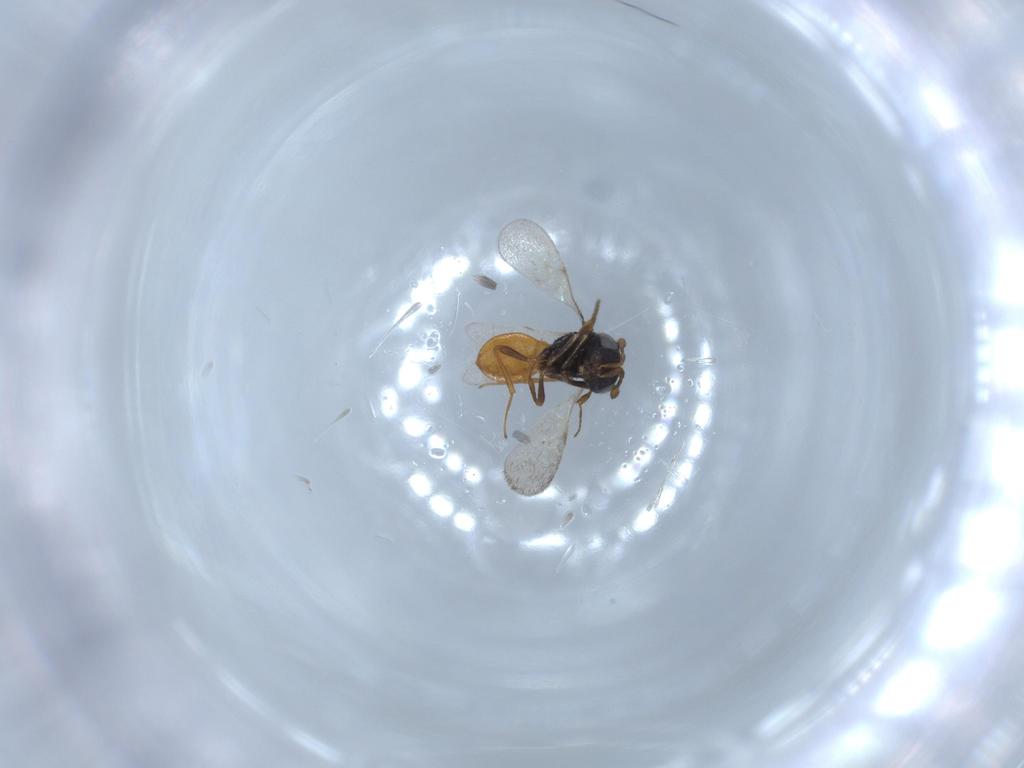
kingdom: Animalia
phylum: Arthropoda
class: Insecta
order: Hymenoptera
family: Scelionidae
